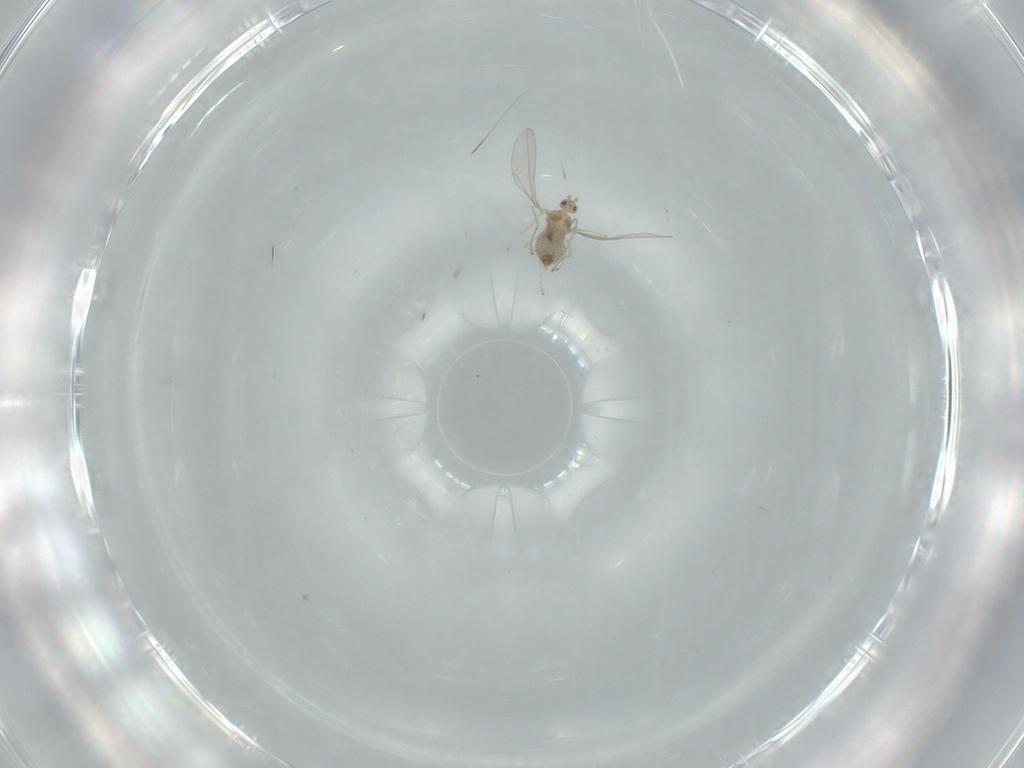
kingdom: Animalia
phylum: Arthropoda
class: Insecta
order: Diptera
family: Cecidomyiidae
